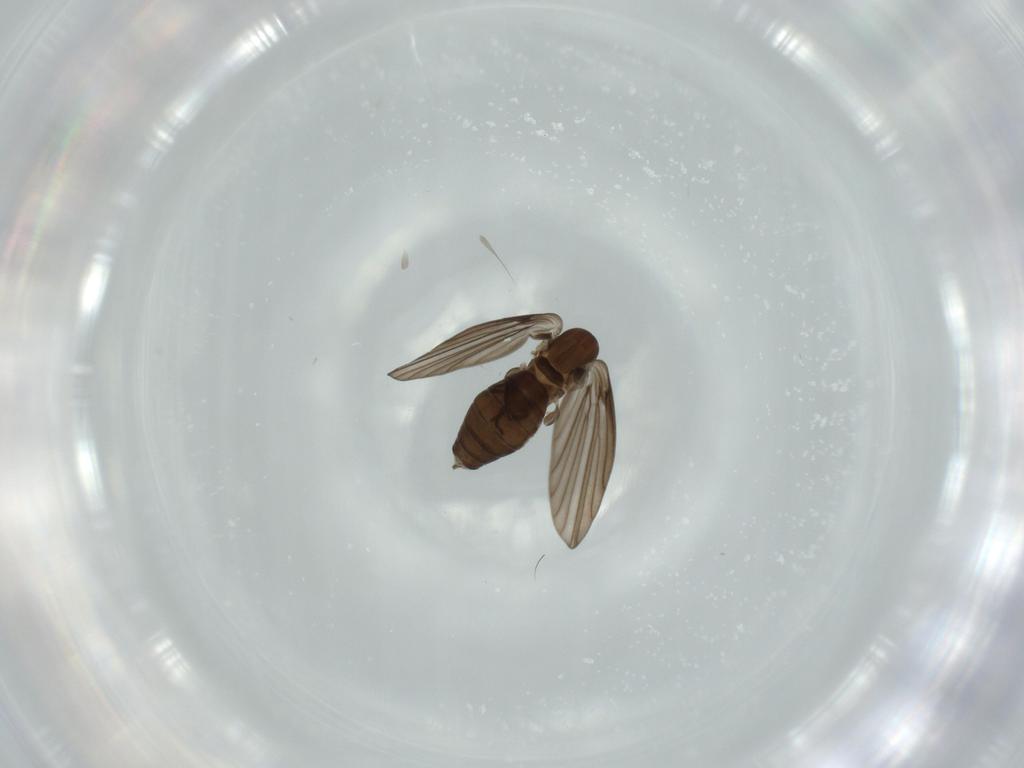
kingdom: Animalia
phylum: Arthropoda
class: Insecta
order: Diptera
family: Psychodidae
